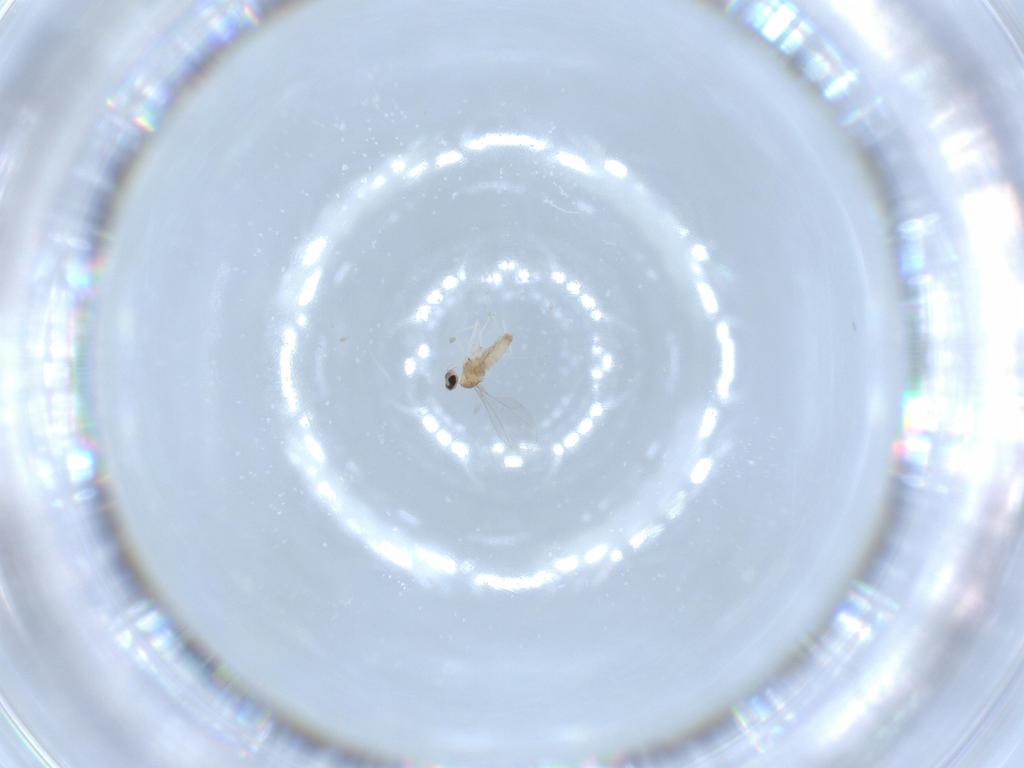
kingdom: Animalia
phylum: Arthropoda
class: Insecta
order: Diptera
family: Cecidomyiidae
